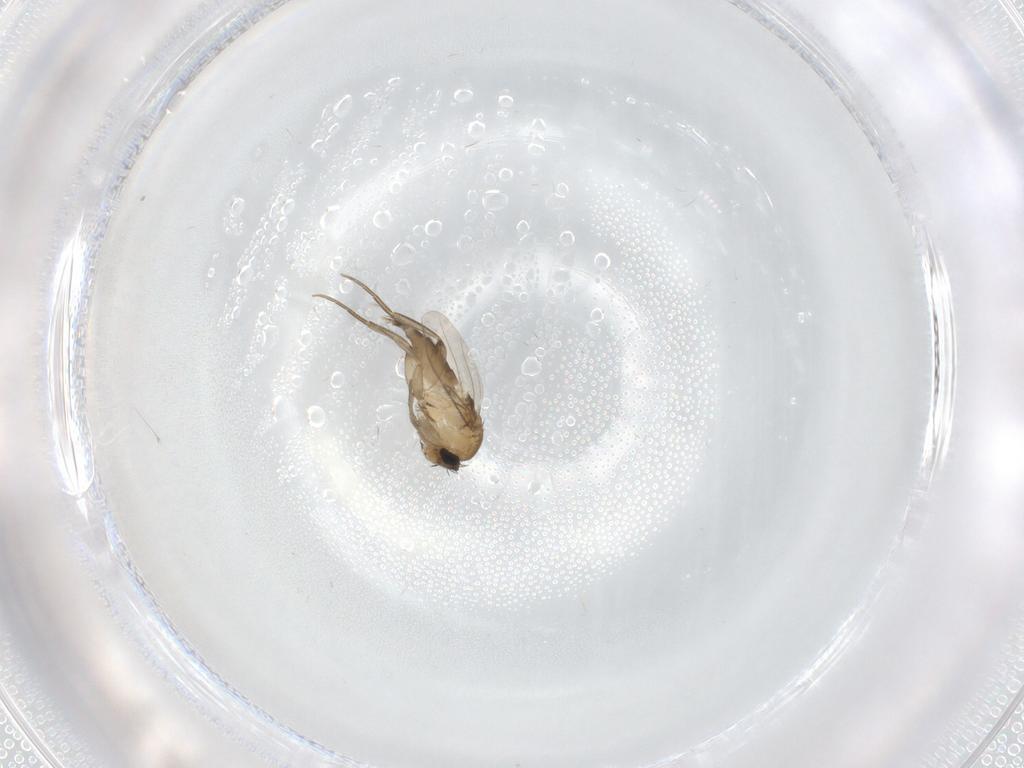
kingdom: Animalia
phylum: Arthropoda
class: Insecta
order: Diptera
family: Phoridae
